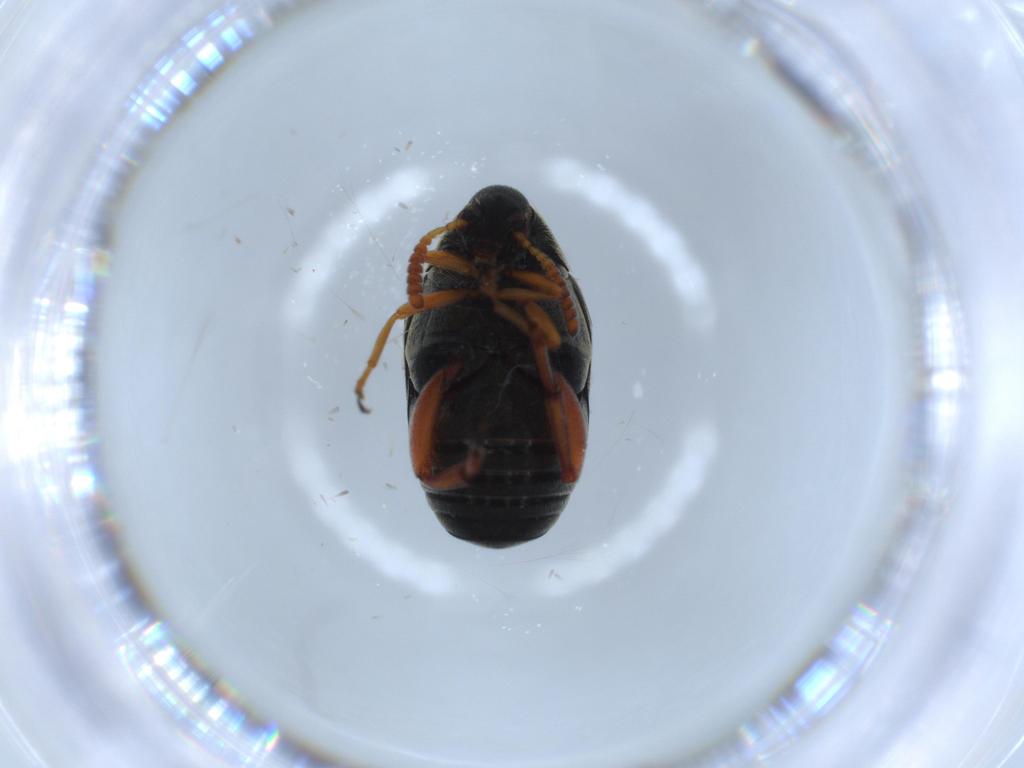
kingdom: Animalia
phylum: Arthropoda
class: Insecta
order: Coleoptera
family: Chrysomelidae
